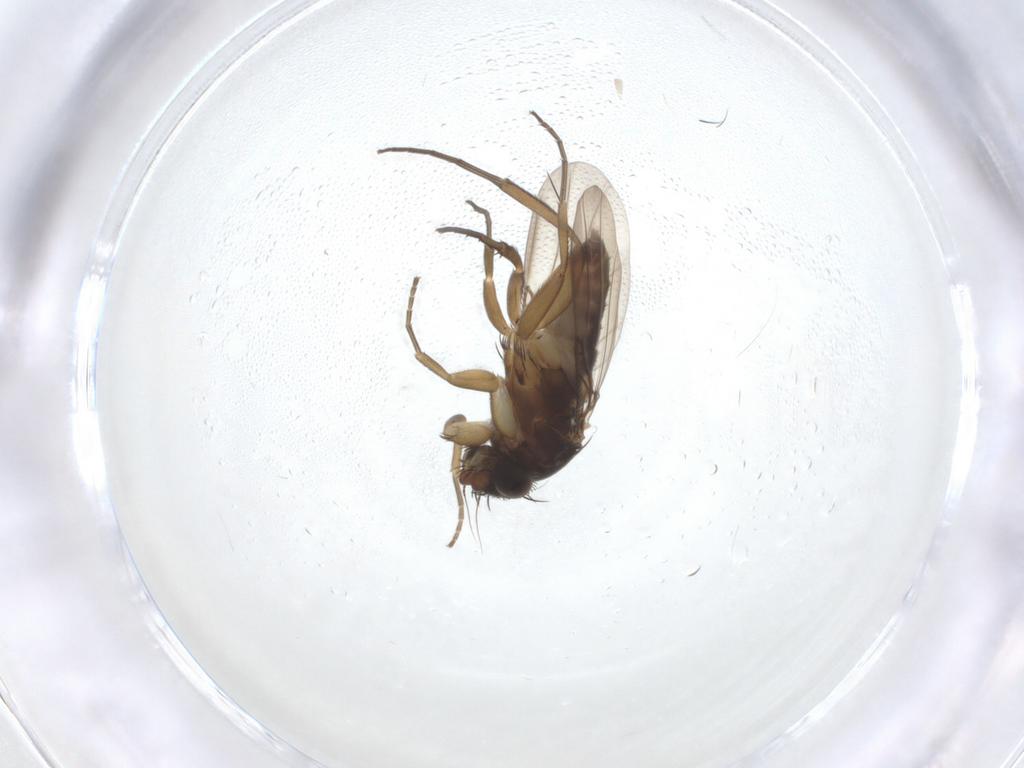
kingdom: Animalia
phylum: Arthropoda
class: Insecta
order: Diptera
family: Phoridae
